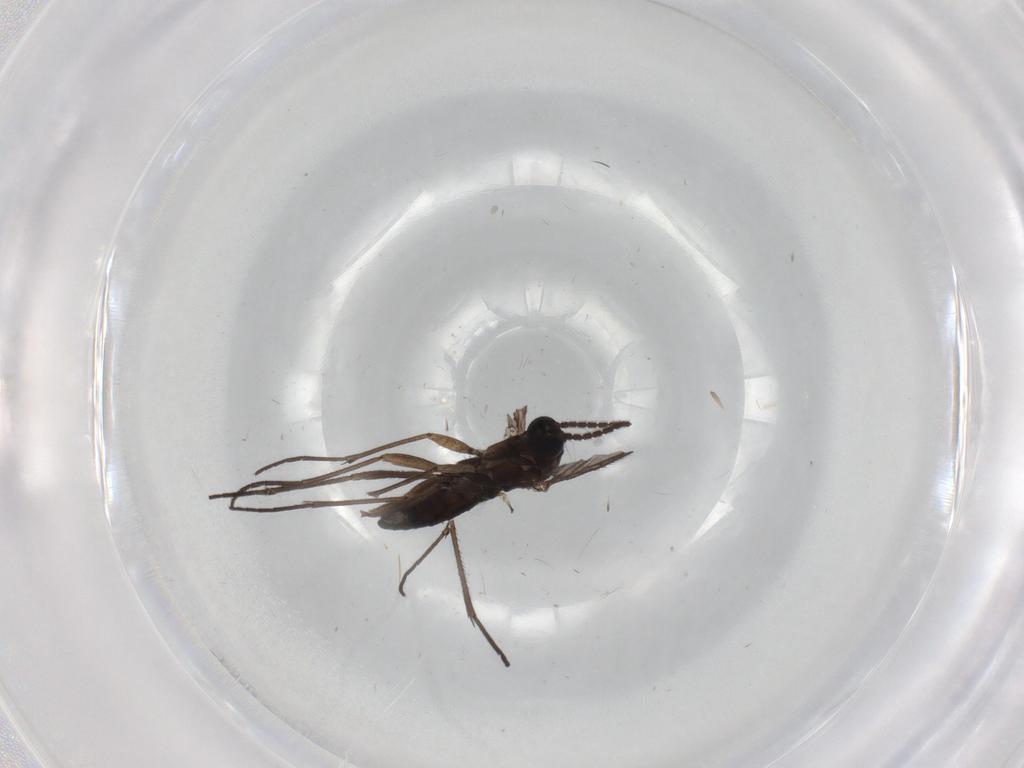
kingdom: Animalia
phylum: Arthropoda
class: Insecta
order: Diptera
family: Sciaridae
